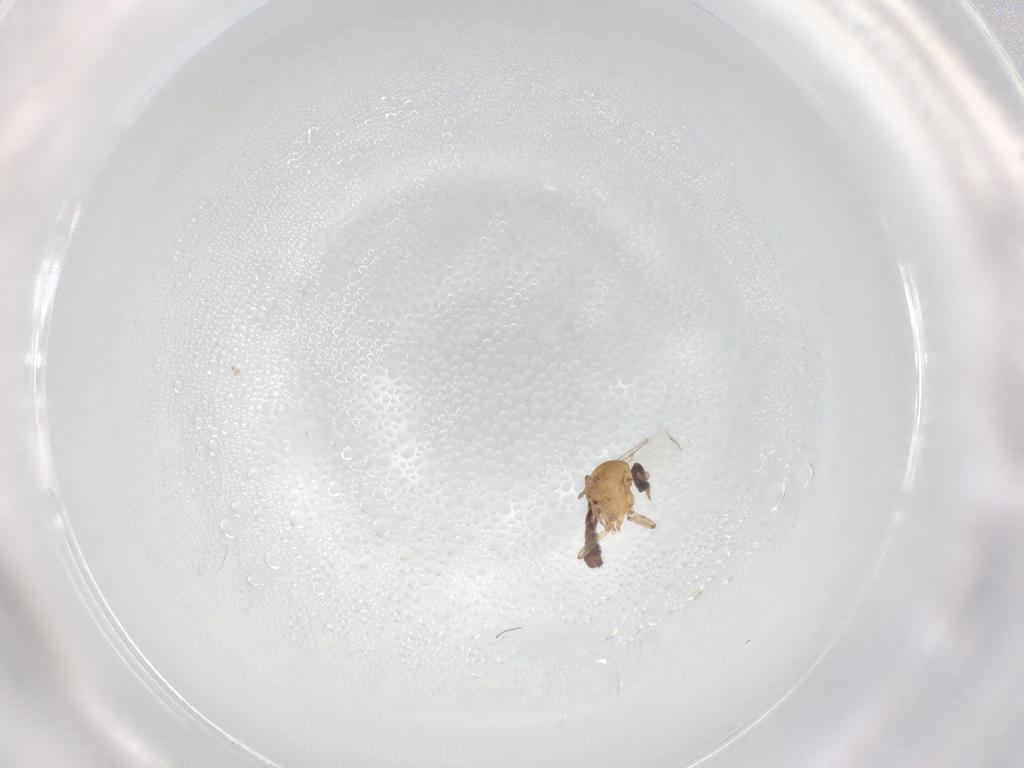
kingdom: Animalia
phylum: Arthropoda
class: Insecta
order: Diptera
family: Ceratopogonidae
